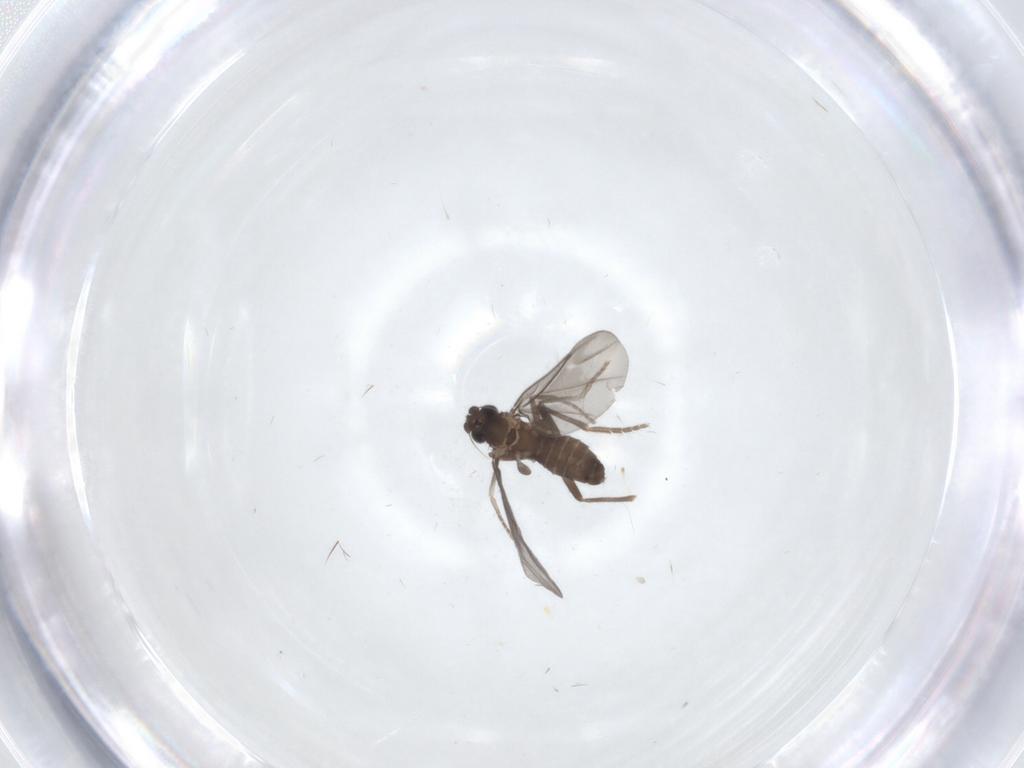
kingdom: Animalia
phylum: Arthropoda
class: Insecta
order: Diptera
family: Phoridae
